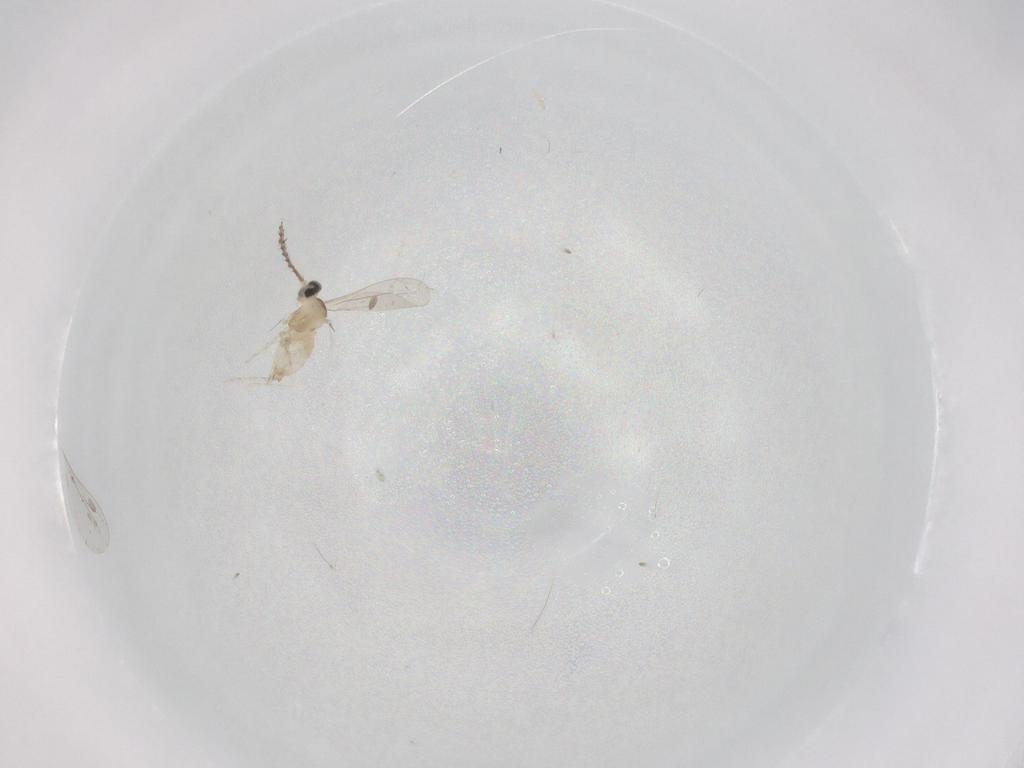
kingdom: Animalia
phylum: Arthropoda
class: Insecta
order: Diptera
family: Cecidomyiidae
